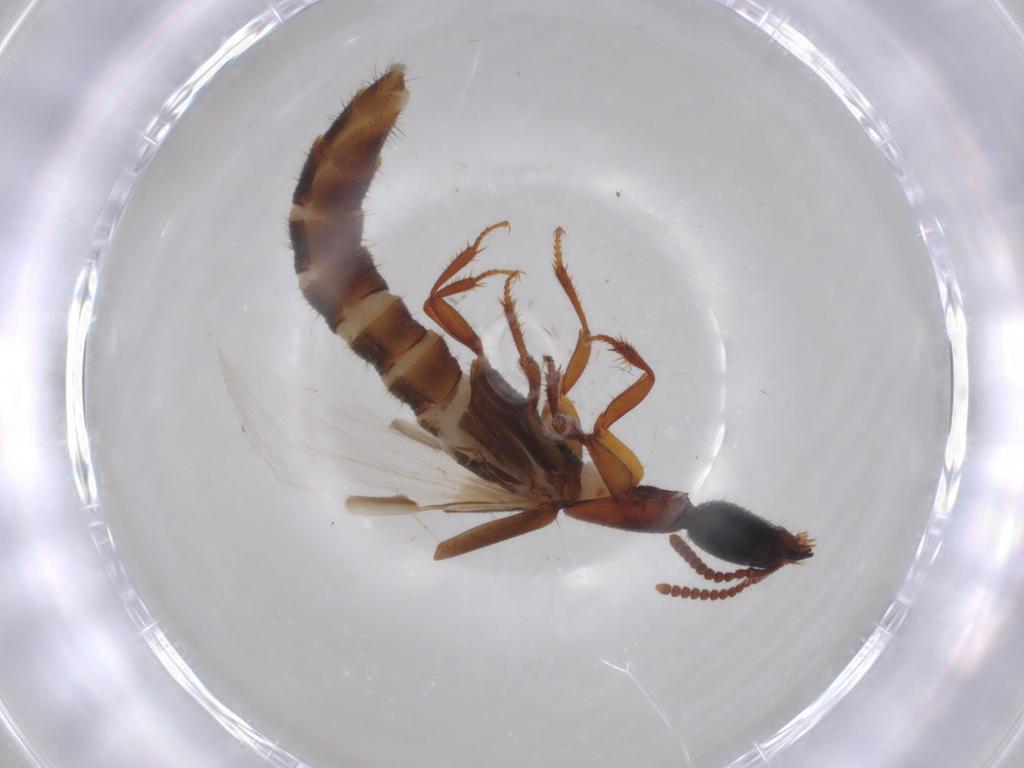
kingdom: Animalia
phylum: Arthropoda
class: Insecta
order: Coleoptera
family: Staphylinidae
